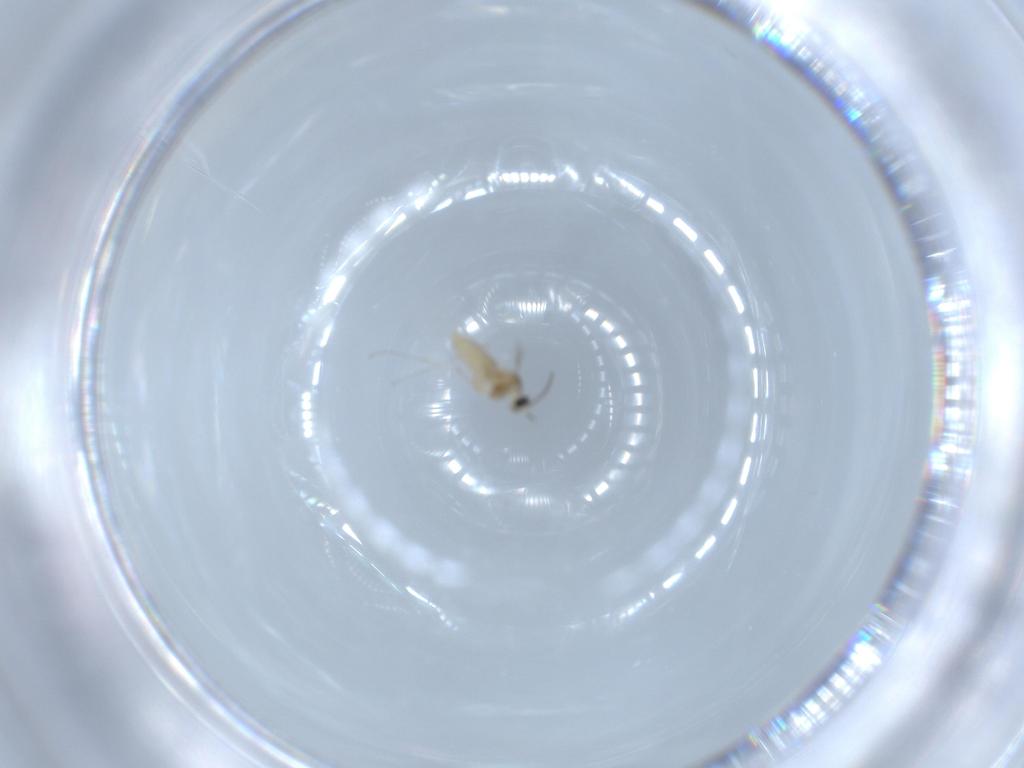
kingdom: Animalia
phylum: Arthropoda
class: Insecta
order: Diptera
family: Cecidomyiidae
